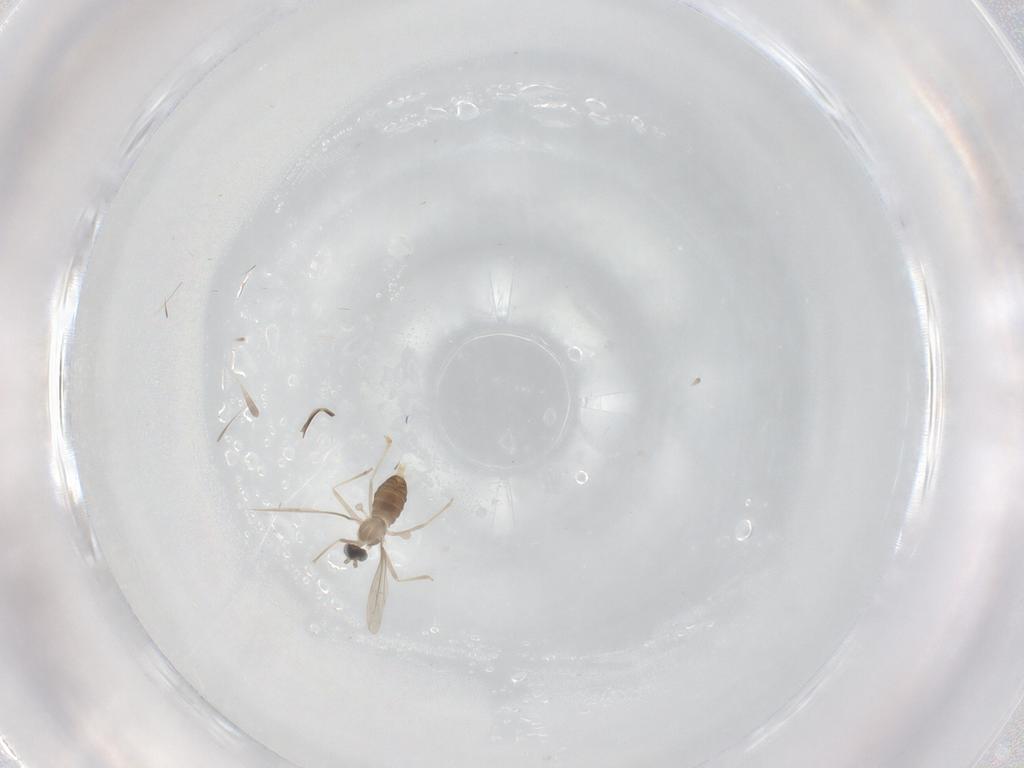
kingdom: Animalia
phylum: Arthropoda
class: Insecta
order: Diptera
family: Cecidomyiidae
